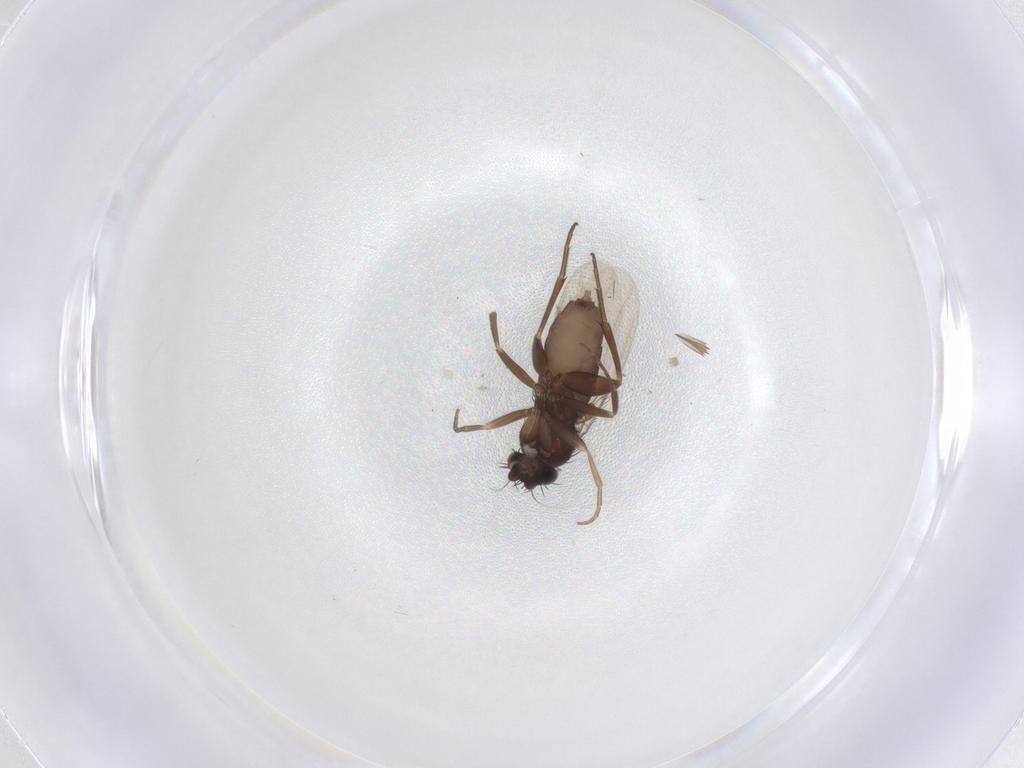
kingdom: Animalia
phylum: Arthropoda
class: Insecta
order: Diptera
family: Phoridae
